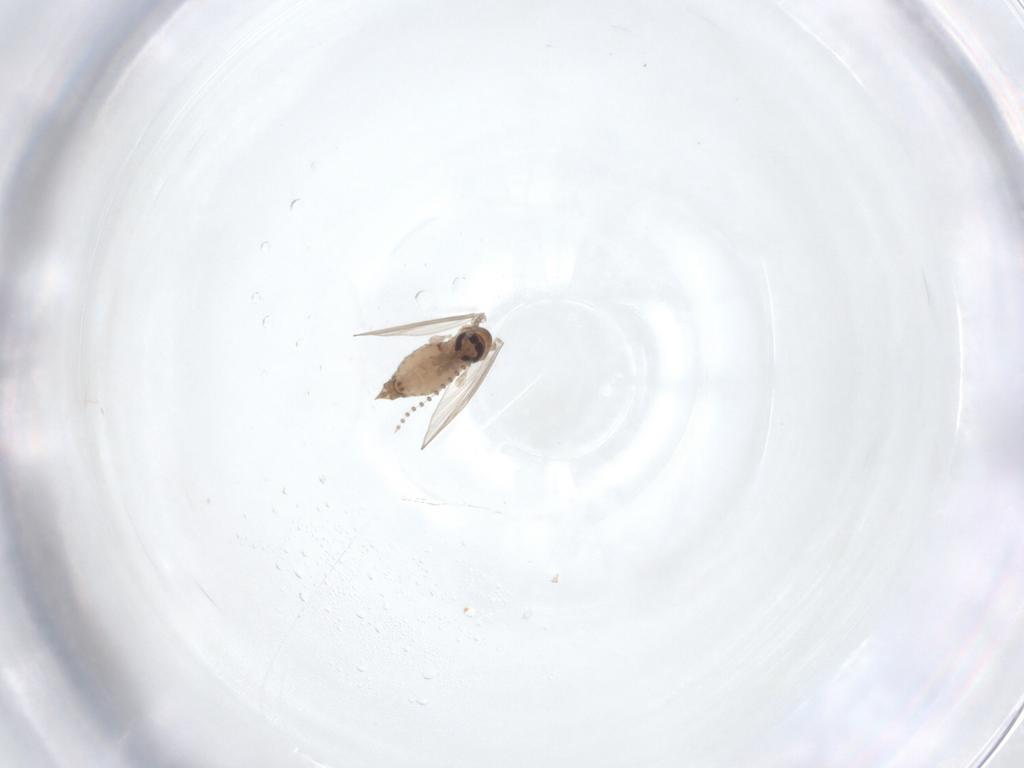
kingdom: Animalia
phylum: Arthropoda
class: Insecta
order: Diptera
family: Psychodidae
